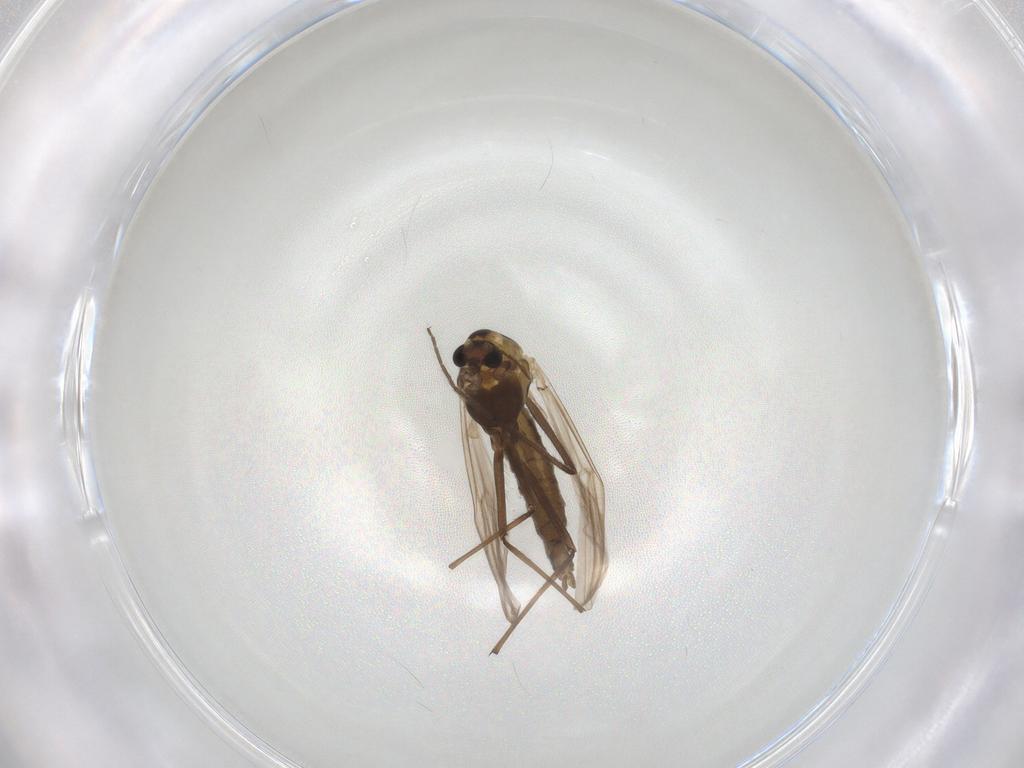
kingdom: Animalia
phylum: Arthropoda
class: Insecta
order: Diptera
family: Chironomidae
